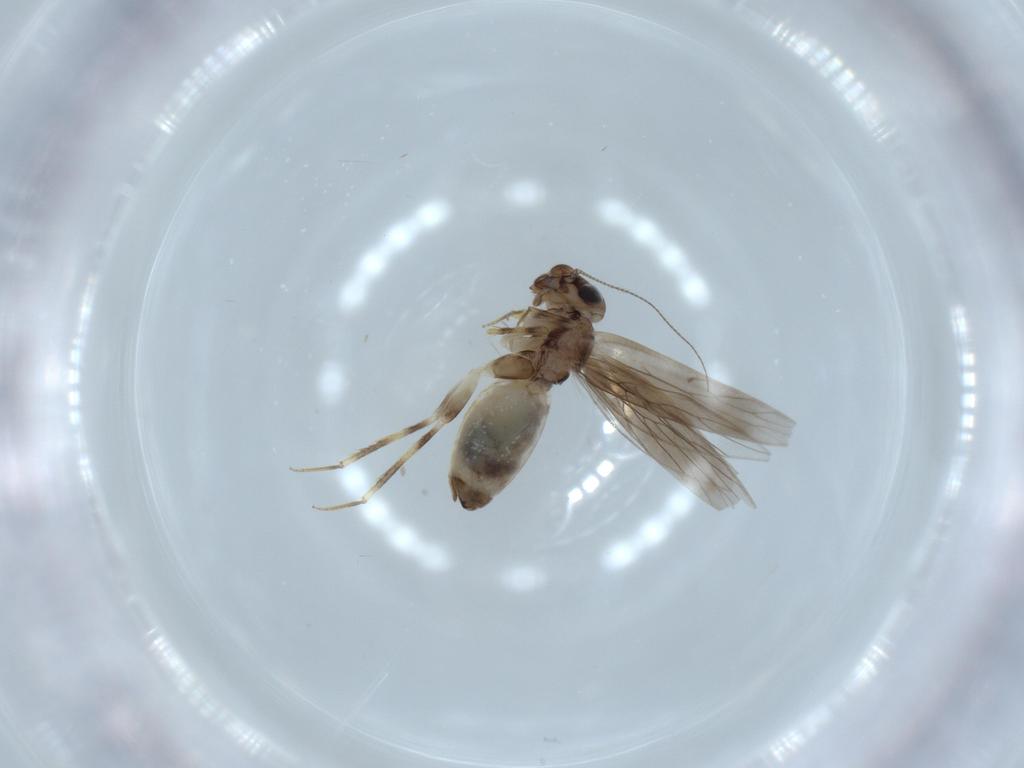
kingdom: Animalia
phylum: Arthropoda
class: Insecta
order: Psocodea
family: Lepidopsocidae
